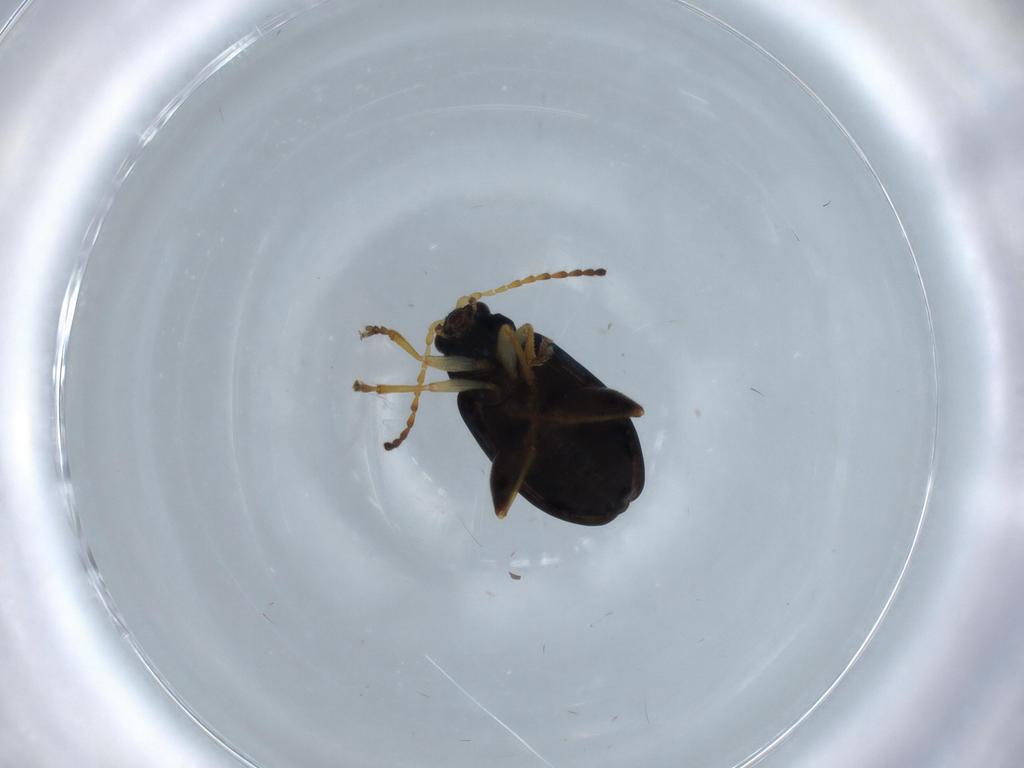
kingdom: Animalia
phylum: Arthropoda
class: Insecta
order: Coleoptera
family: Chrysomelidae
